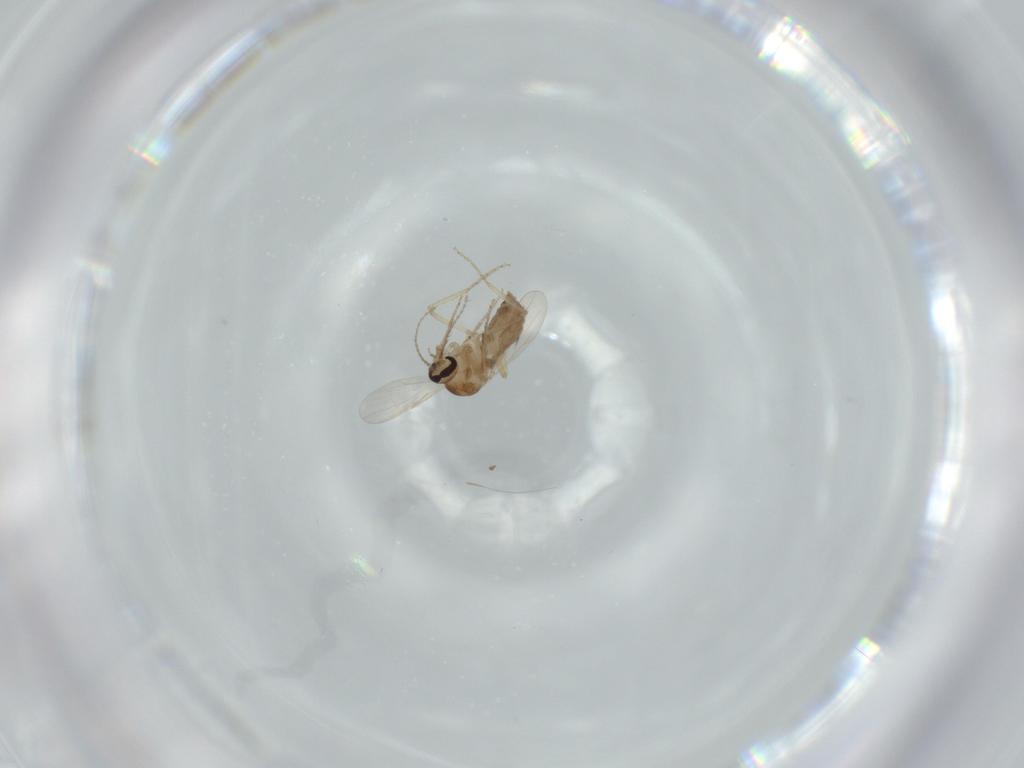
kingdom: Animalia
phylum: Arthropoda
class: Insecta
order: Diptera
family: Ceratopogonidae
